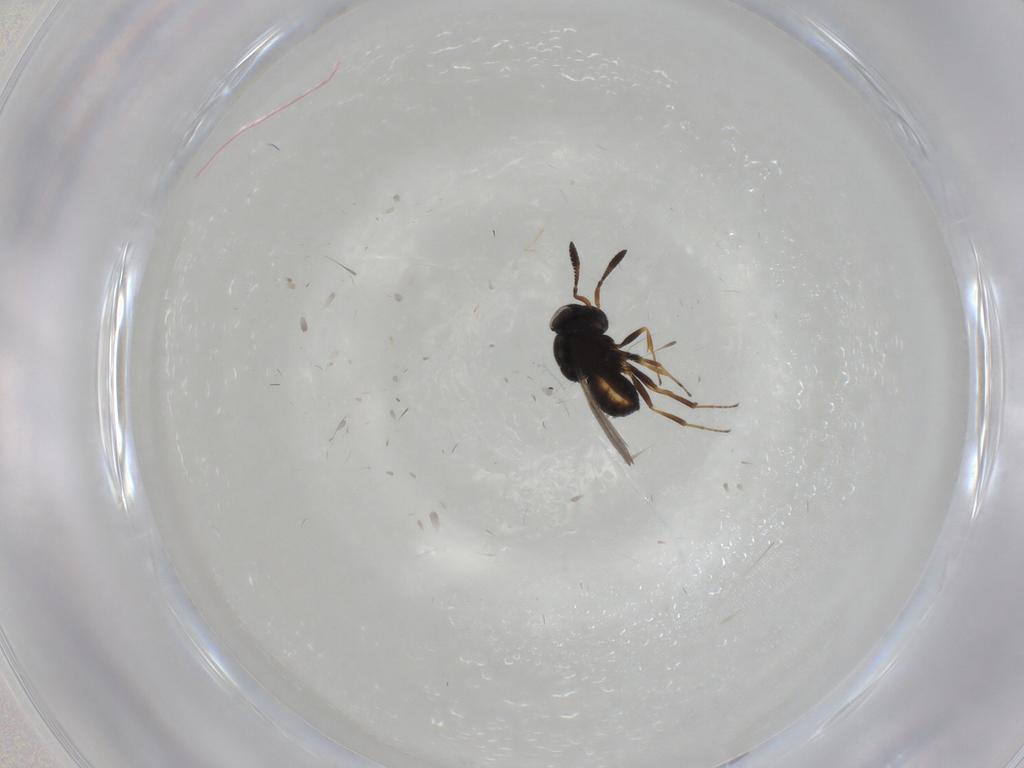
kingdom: Animalia
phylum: Arthropoda
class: Insecta
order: Hymenoptera
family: Scelionidae
